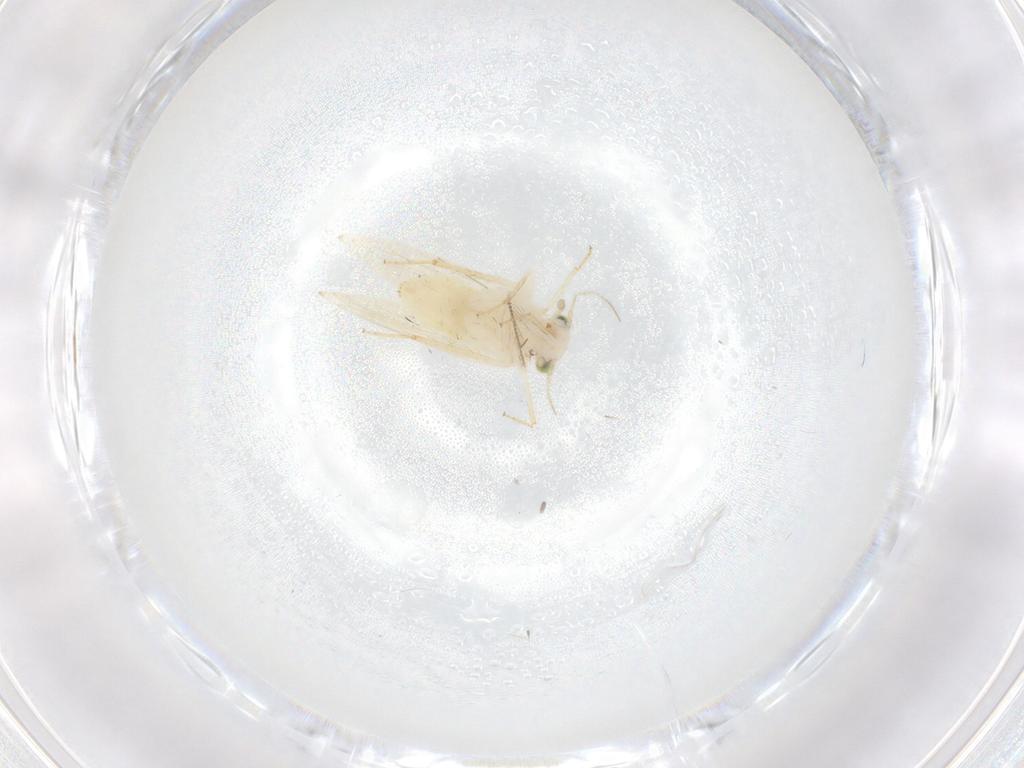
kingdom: Animalia
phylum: Arthropoda
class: Insecta
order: Psocodea
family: Lepidopsocidae
